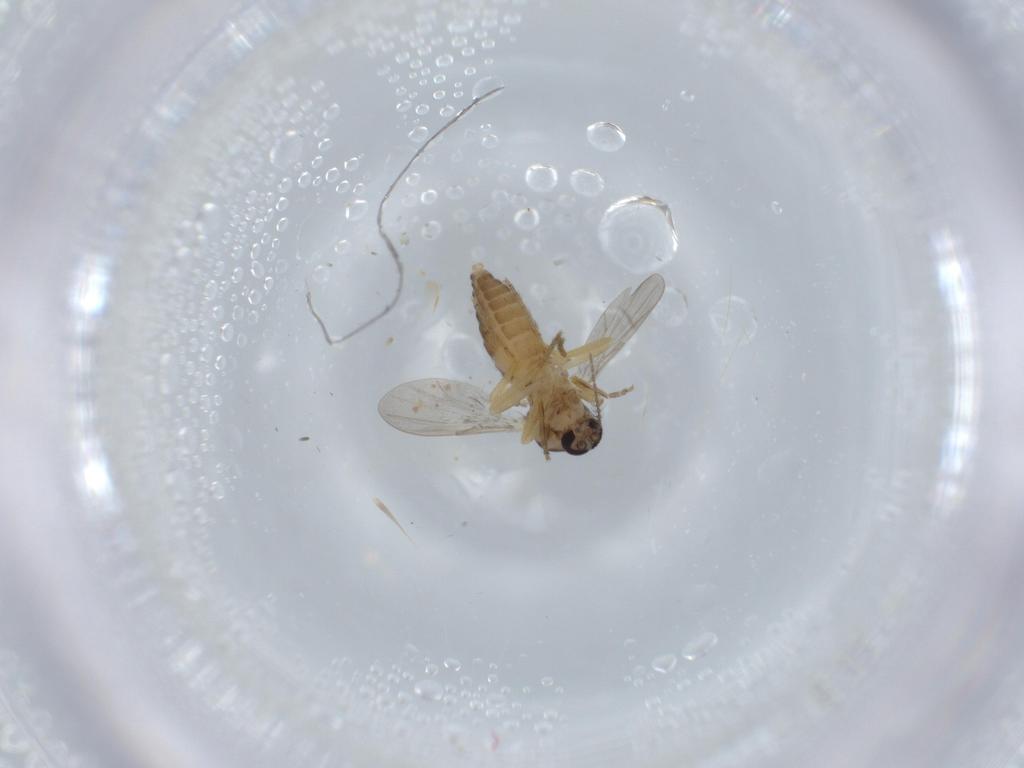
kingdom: Animalia
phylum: Arthropoda
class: Insecta
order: Diptera
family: Ceratopogonidae
